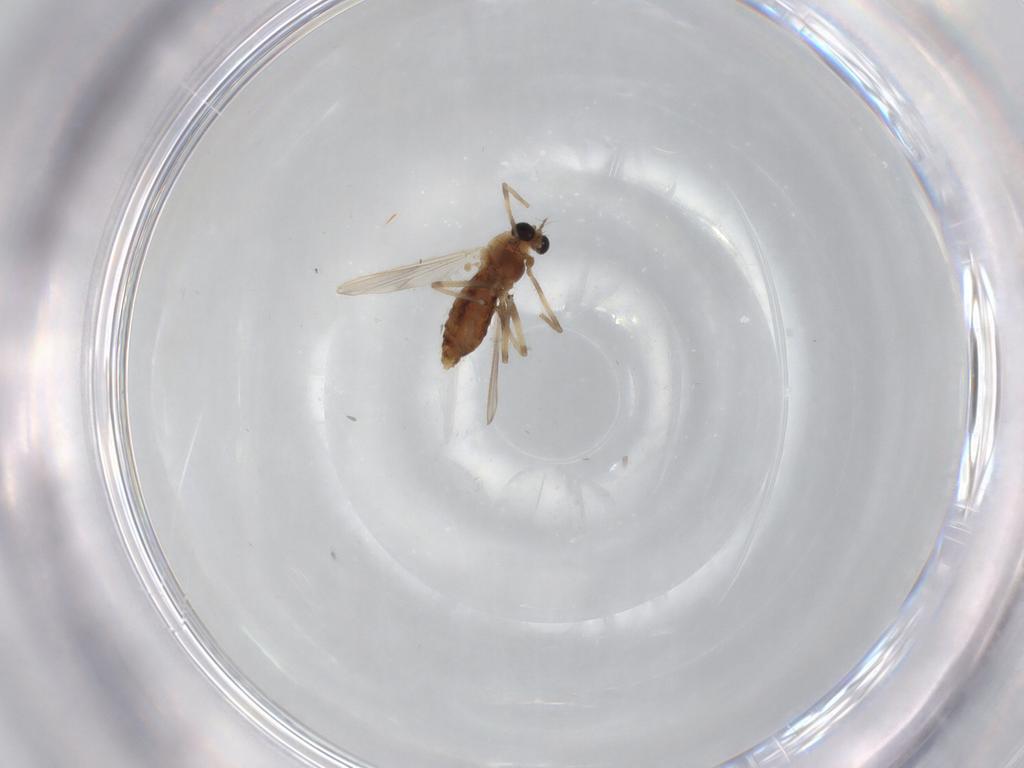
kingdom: Animalia
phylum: Arthropoda
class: Insecta
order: Diptera
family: Chironomidae
